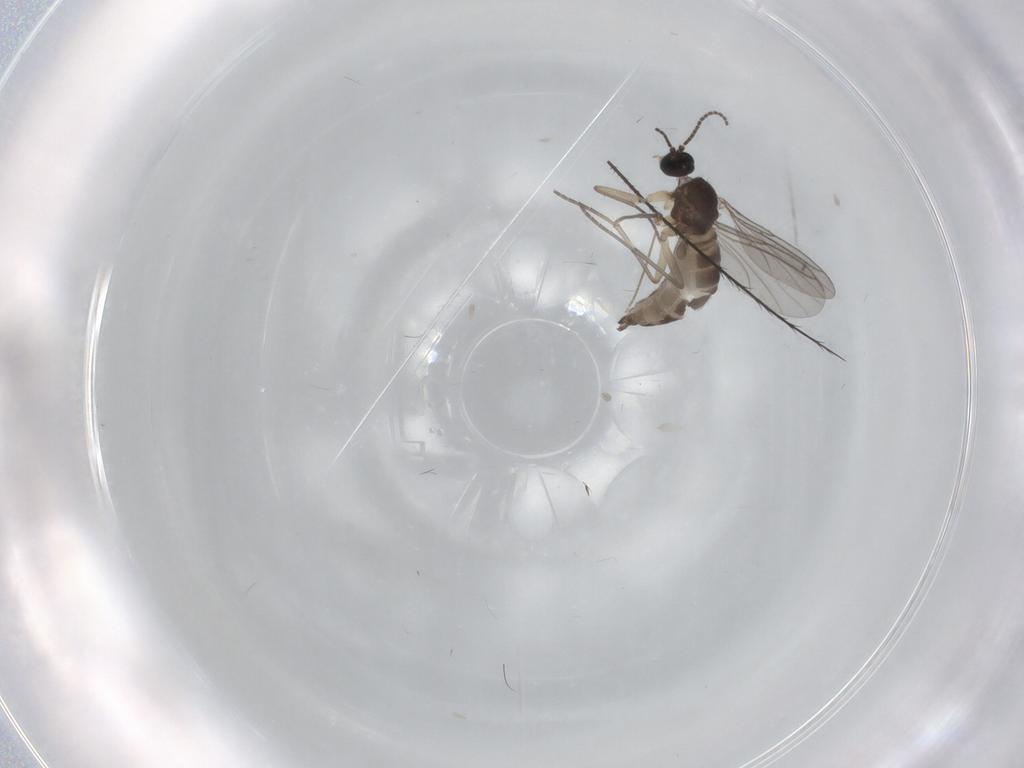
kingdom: Animalia
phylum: Arthropoda
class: Insecta
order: Diptera
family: Sciaridae
